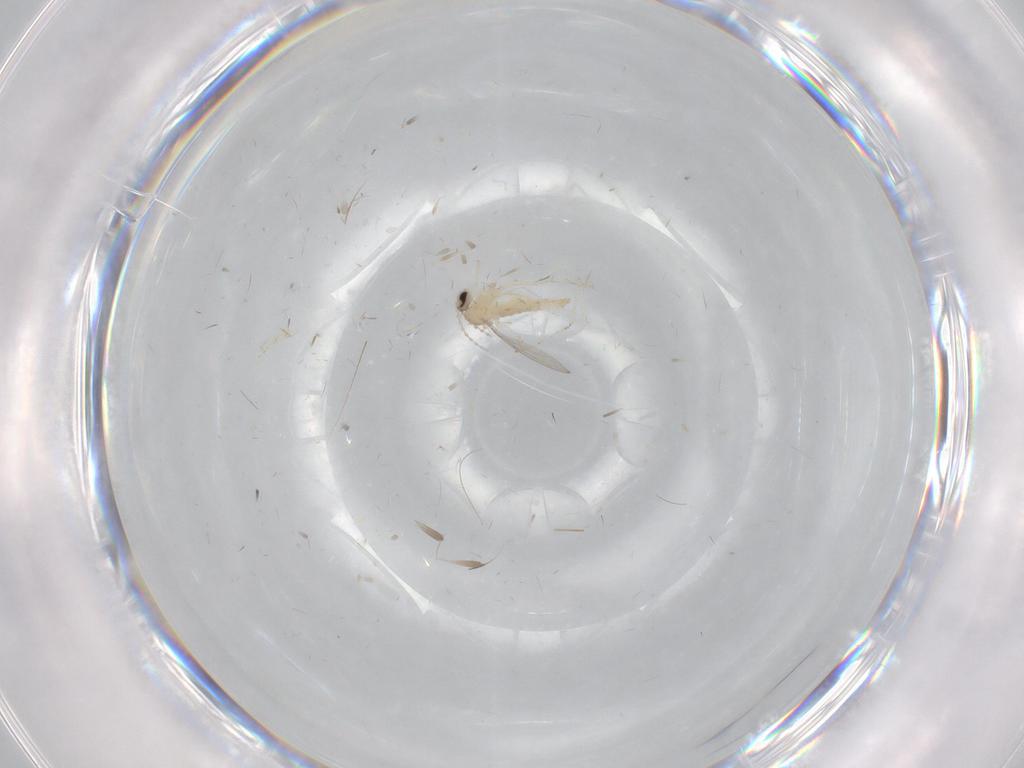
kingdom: Animalia
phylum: Arthropoda
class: Insecta
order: Diptera
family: Cecidomyiidae
